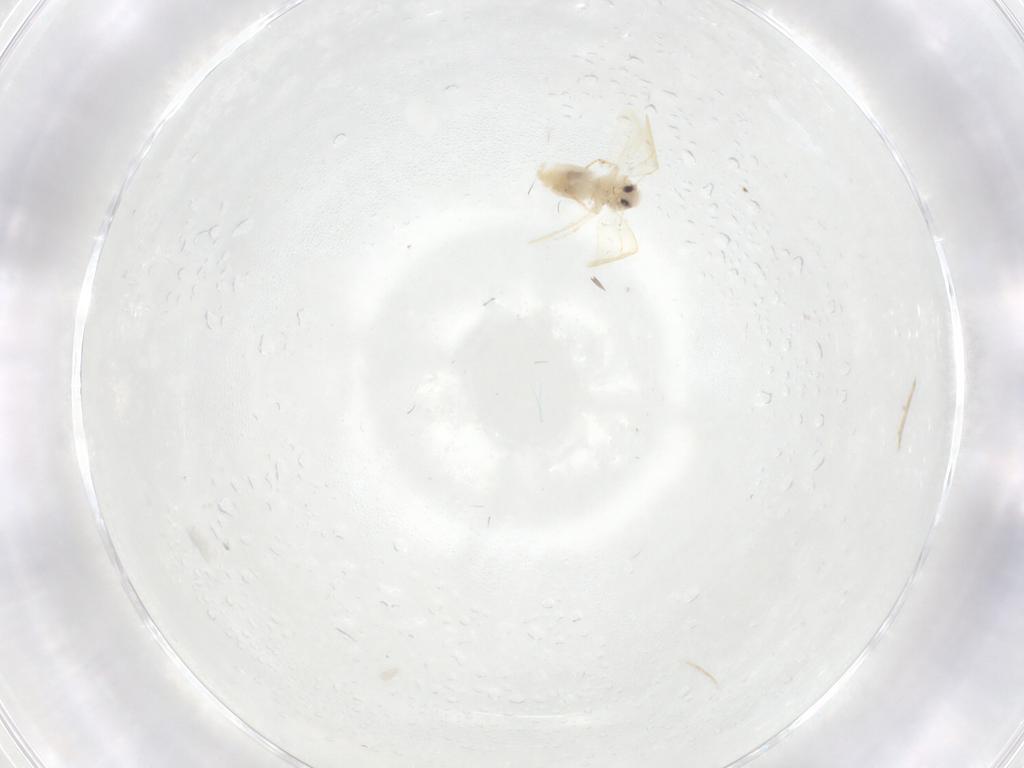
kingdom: Animalia
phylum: Arthropoda
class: Insecta
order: Hemiptera
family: Aleyrodidae
